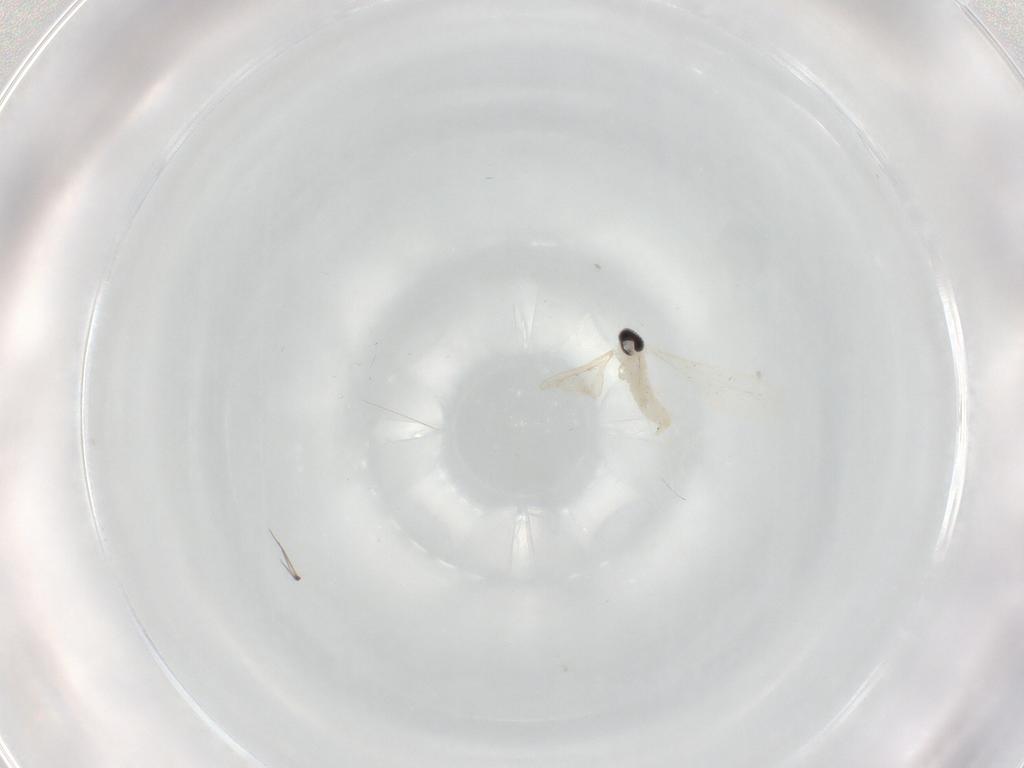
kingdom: Animalia
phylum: Arthropoda
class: Insecta
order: Diptera
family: Cecidomyiidae
